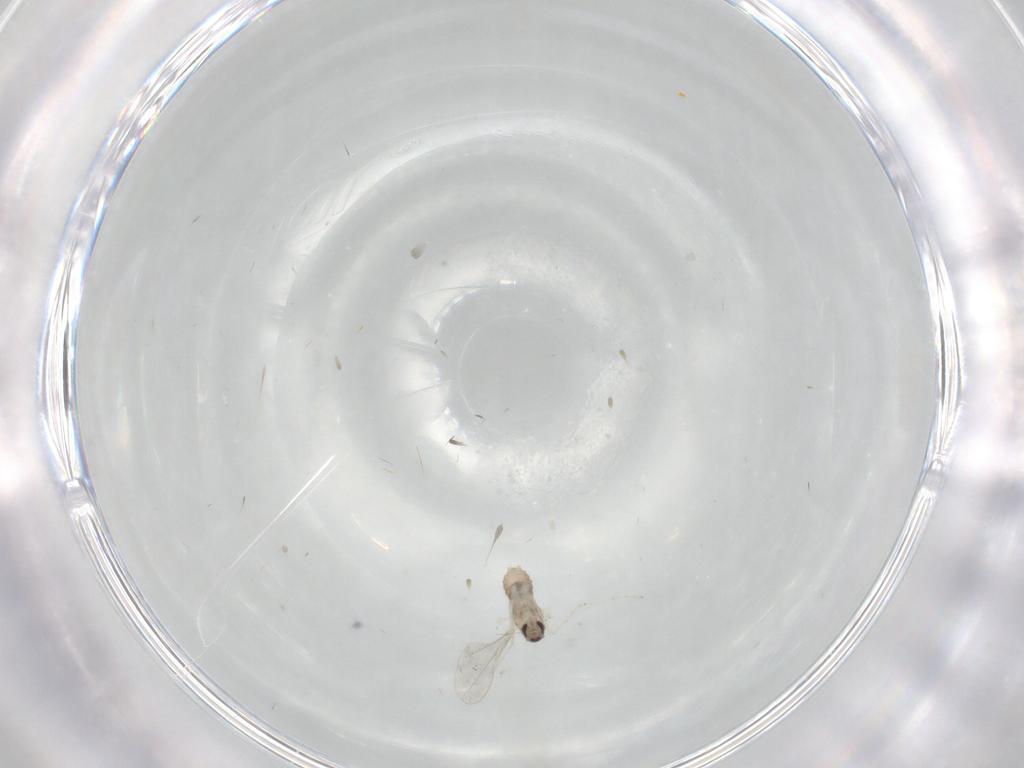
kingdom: Animalia
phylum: Arthropoda
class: Insecta
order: Diptera
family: Cecidomyiidae
